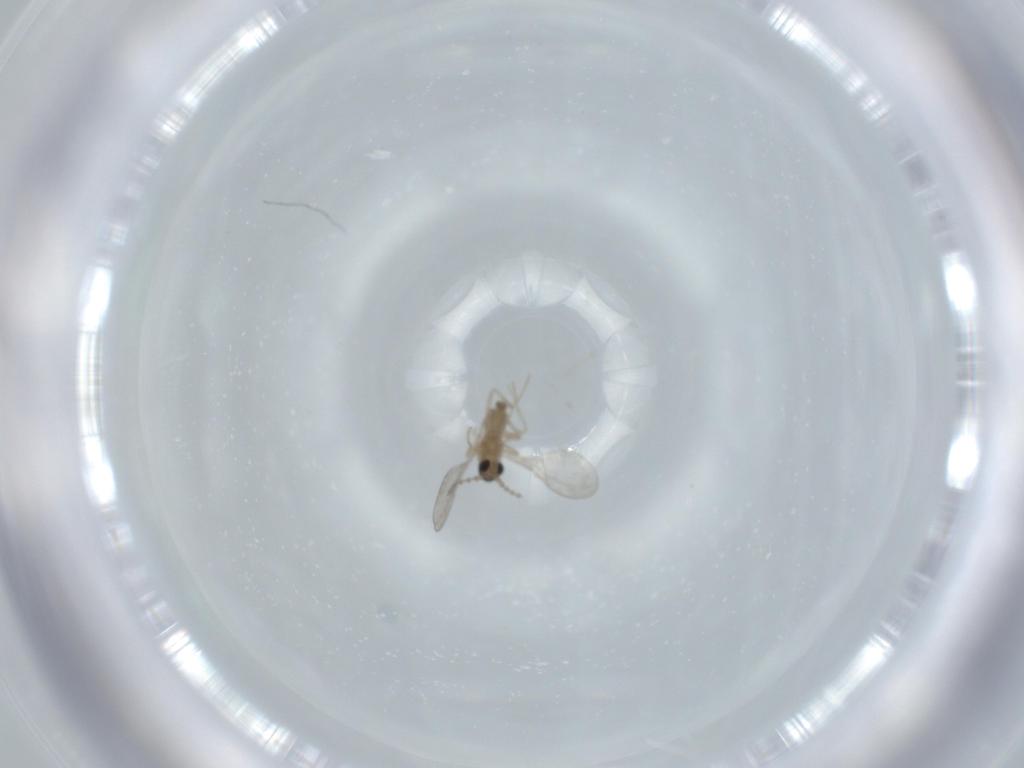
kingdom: Animalia
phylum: Arthropoda
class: Insecta
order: Diptera
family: Cecidomyiidae
